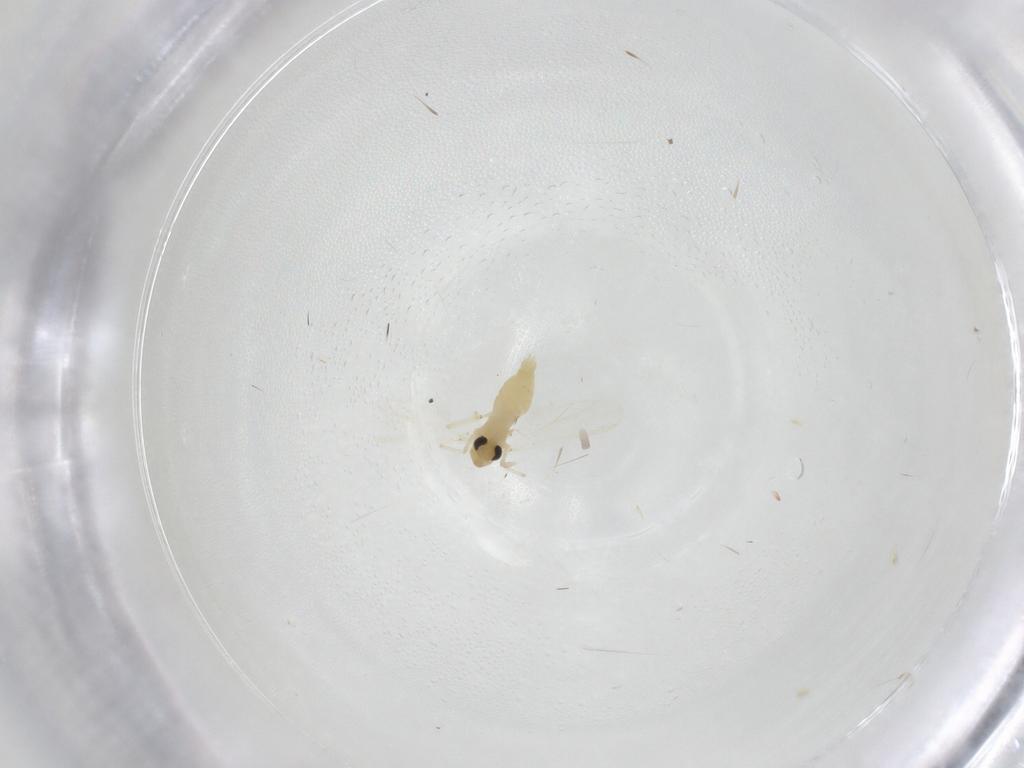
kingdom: Animalia
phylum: Arthropoda
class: Insecta
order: Diptera
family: Chironomidae
